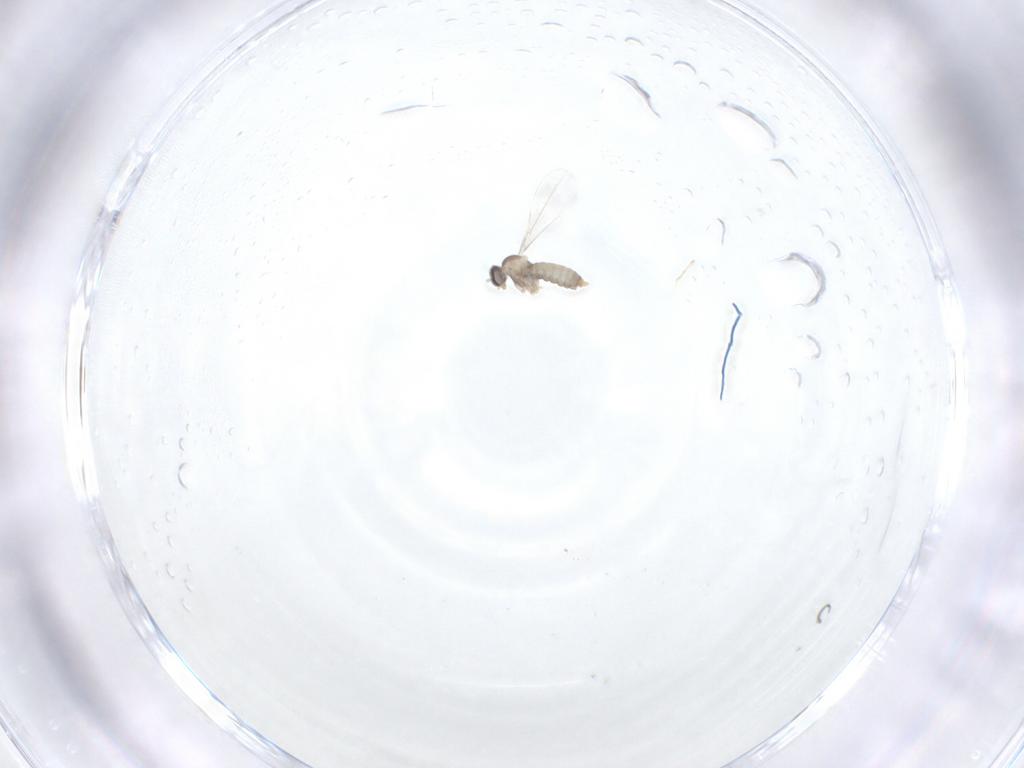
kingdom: Animalia
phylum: Arthropoda
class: Insecta
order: Diptera
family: Cecidomyiidae
